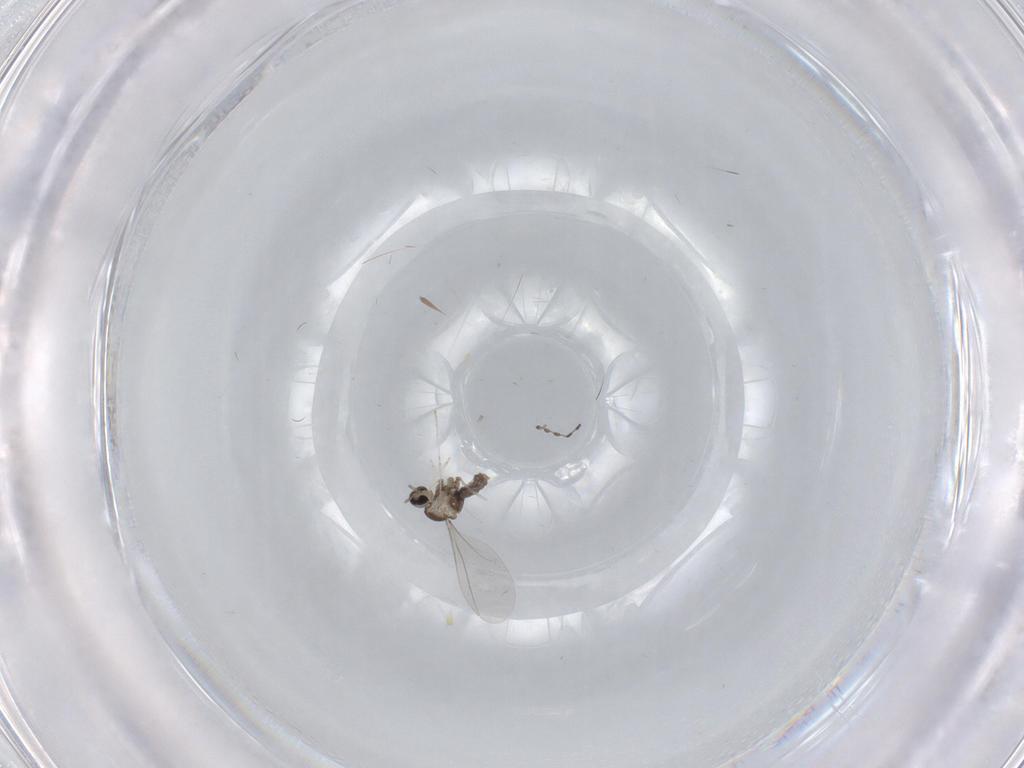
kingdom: Animalia
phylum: Arthropoda
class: Insecta
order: Diptera
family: Cecidomyiidae
